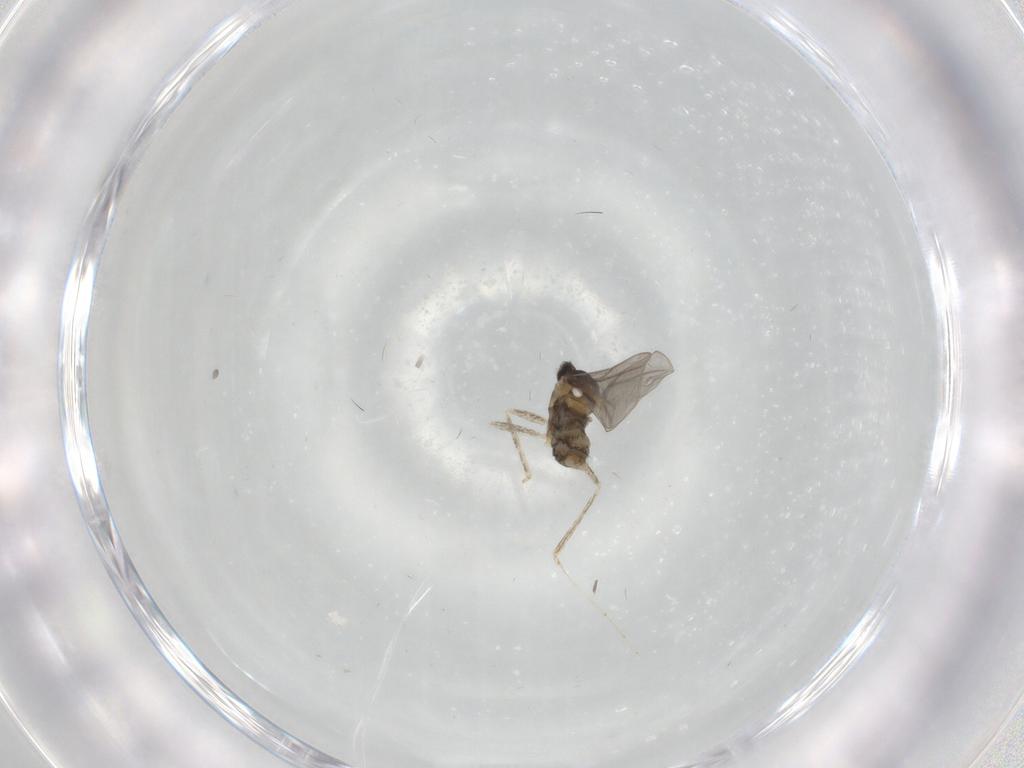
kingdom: Animalia
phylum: Arthropoda
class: Insecta
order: Diptera
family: Cecidomyiidae
